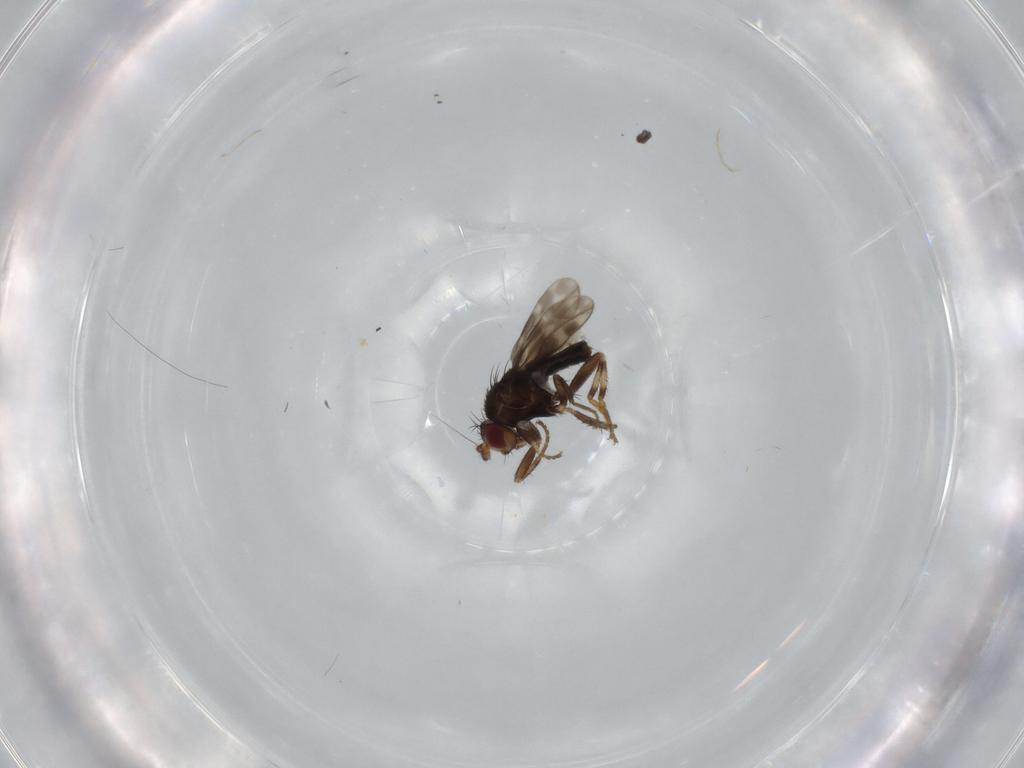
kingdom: Animalia
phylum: Arthropoda
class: Insecta
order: Diptera
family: Sphaeroceridae
